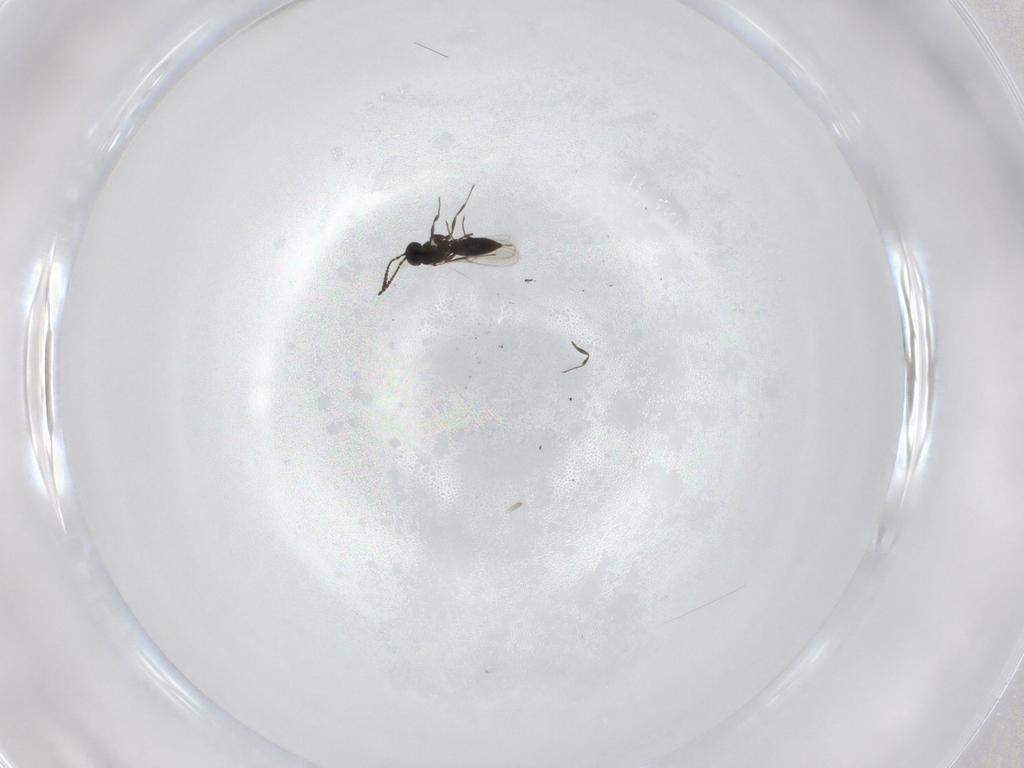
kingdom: Animalia
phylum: Arthropoda
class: Insecta
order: Hymenoptera
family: Scelionidae
